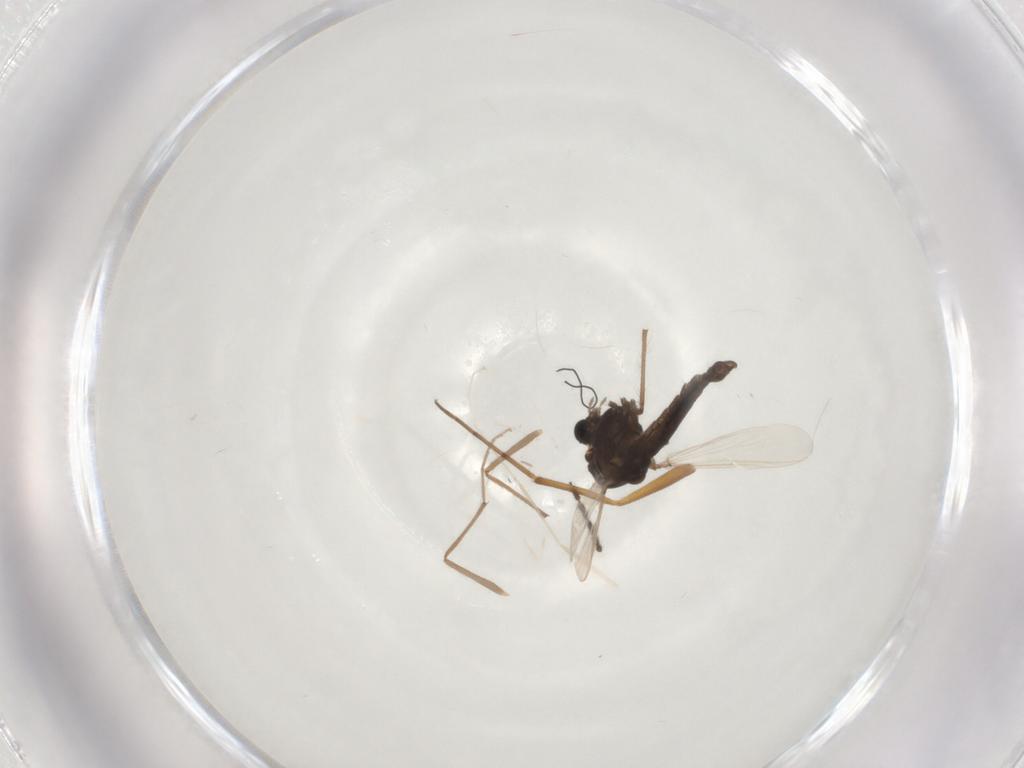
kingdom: Animalia
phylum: Arthropoda
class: Insecta
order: Diptera
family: Chironomidae
